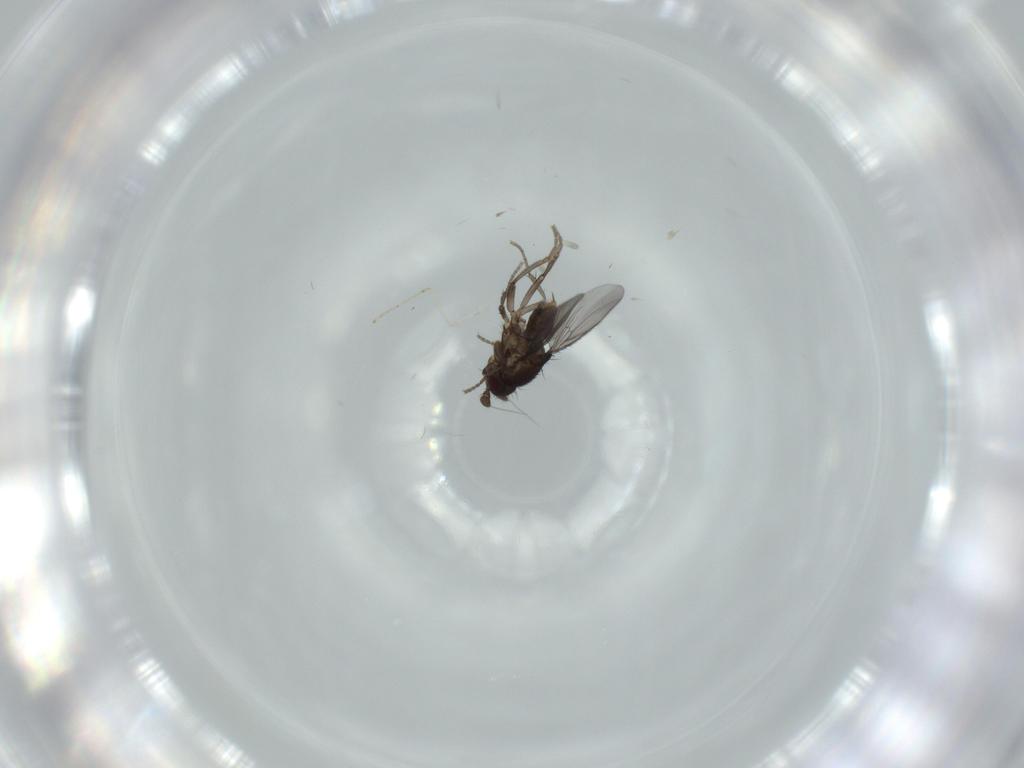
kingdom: Animalia
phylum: Arthropoda
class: Insecta
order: Diptera
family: Sphaeroceridae
